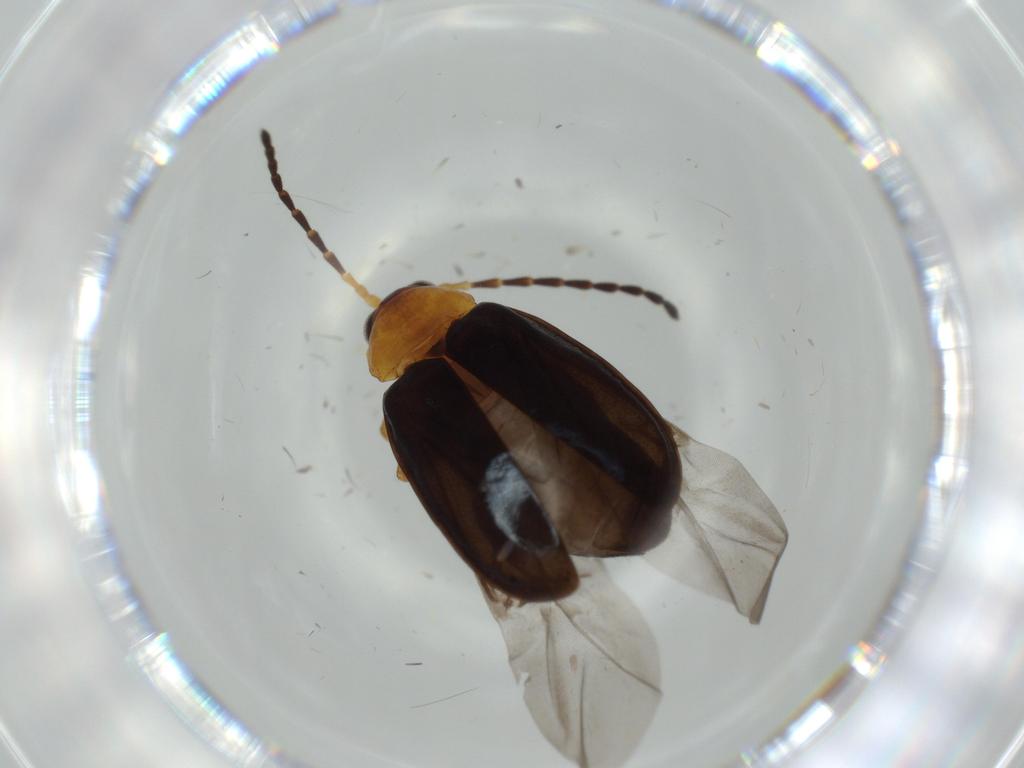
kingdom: Animalia
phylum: Arthropoda
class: Insecta
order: Coleoptera
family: Chrysomelidae
